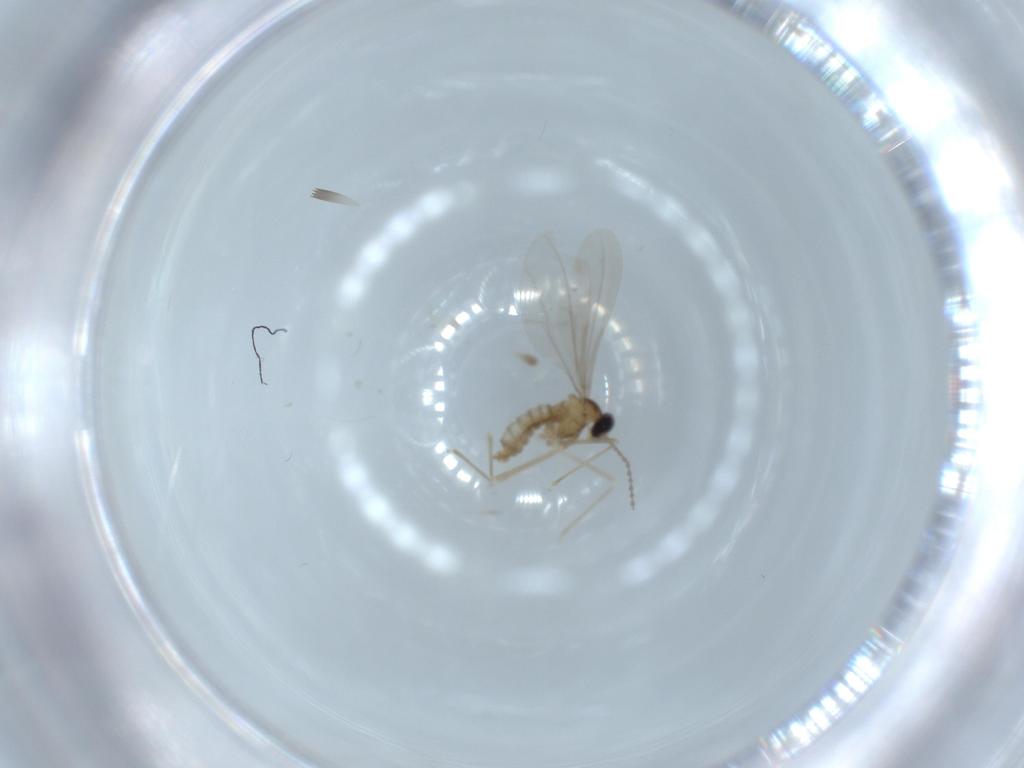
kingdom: Animalia
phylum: Arthropoda
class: Insecta
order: Diptera
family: Cecidomyiidae
